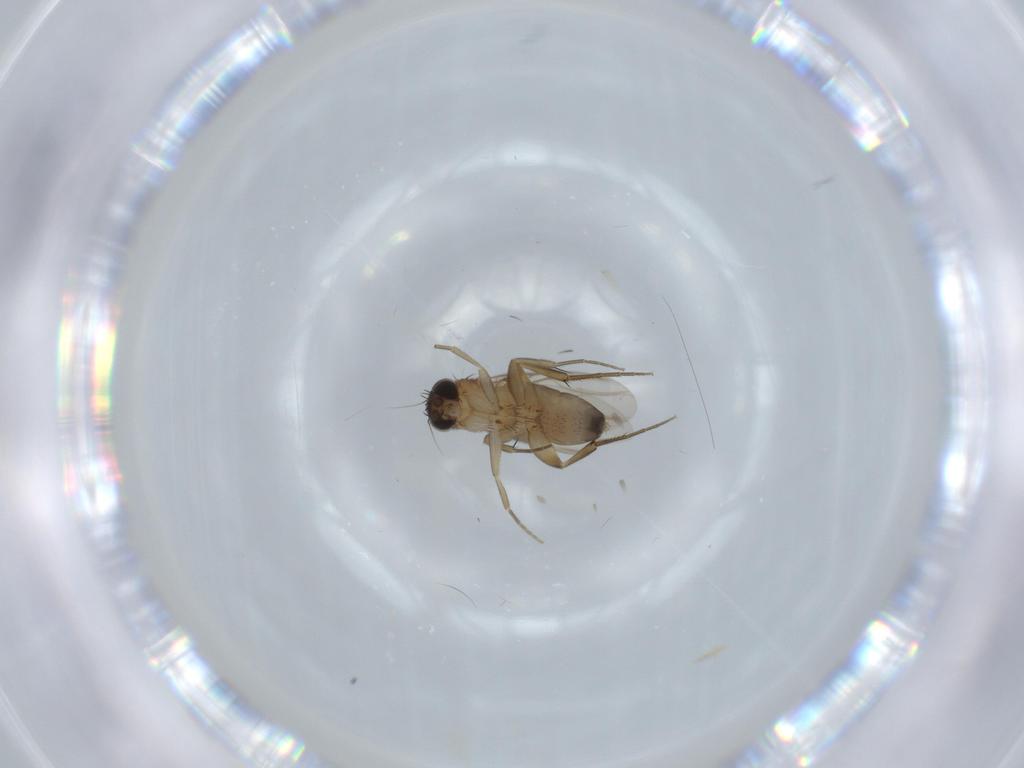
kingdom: Animalia
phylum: Arthropoda
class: Insecta
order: Diptera
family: Phoridae
